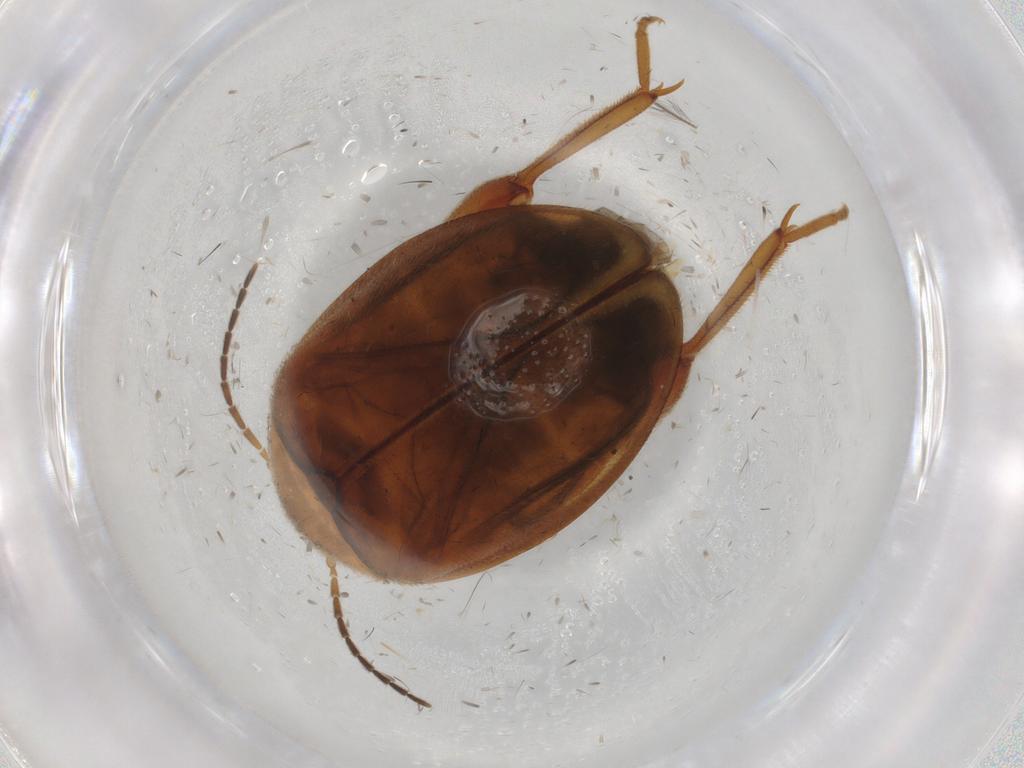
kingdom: Animalia
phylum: Arthropoda
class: Insecta
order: Coleoptera
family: Scirtidae
